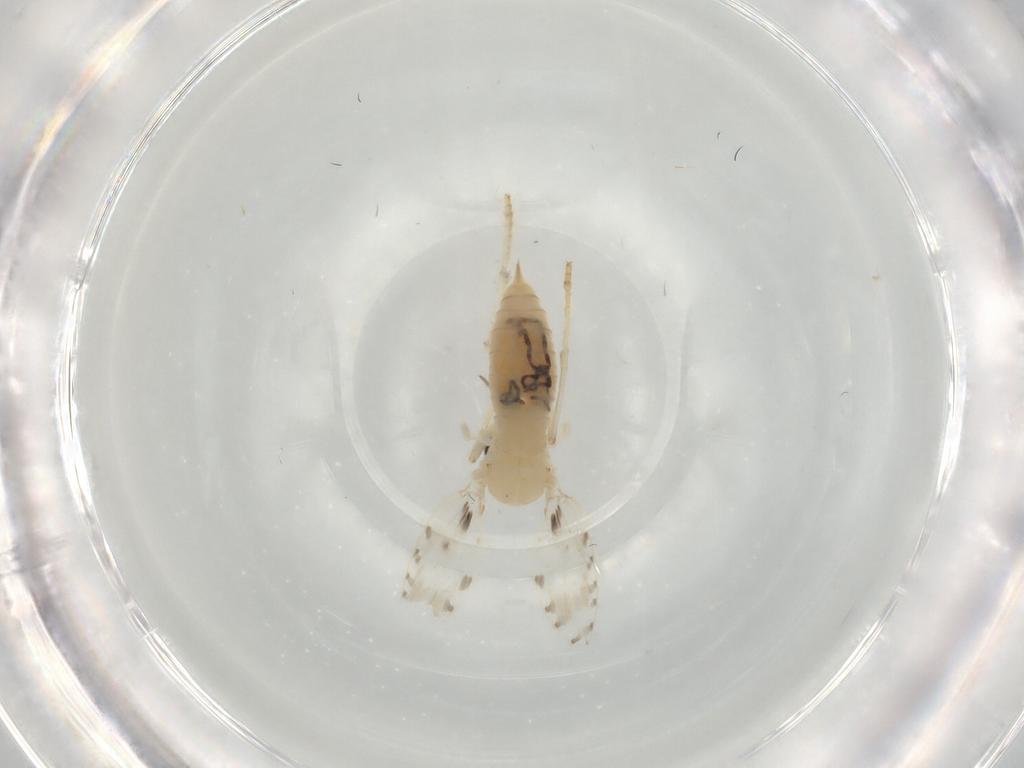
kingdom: Animalia
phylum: Arthropoda
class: Insecta
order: Diptera
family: Psychodidae
